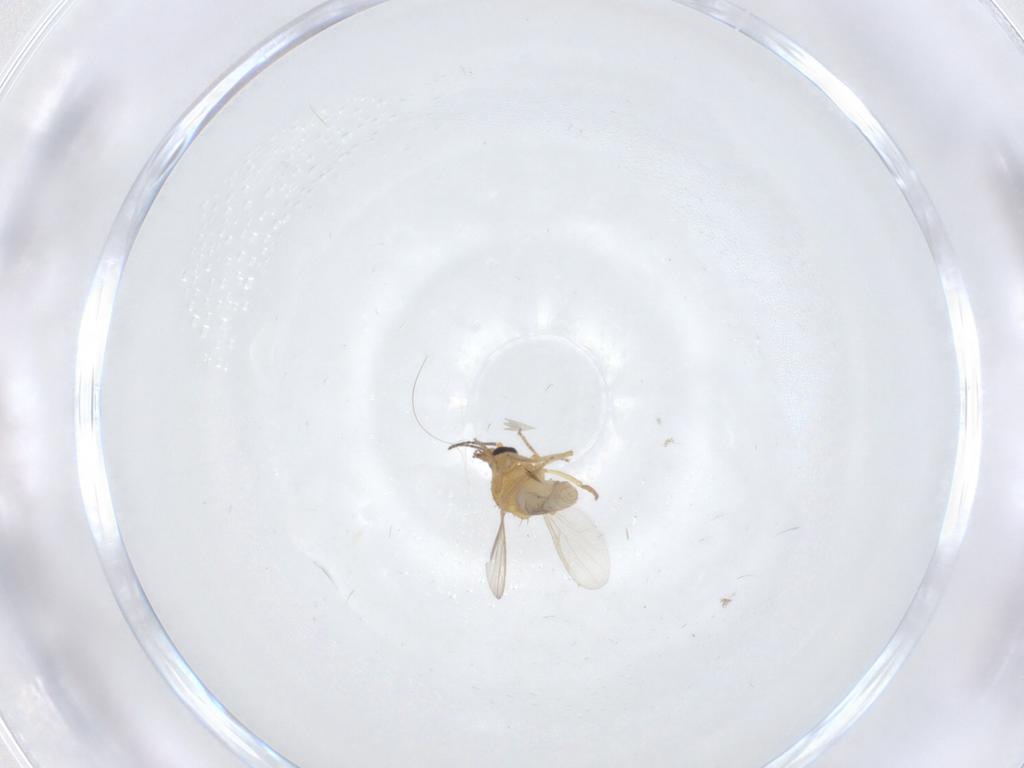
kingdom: Animalia
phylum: Arthropoda
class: Insecta
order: Diptera
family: Ceratopogonidae
